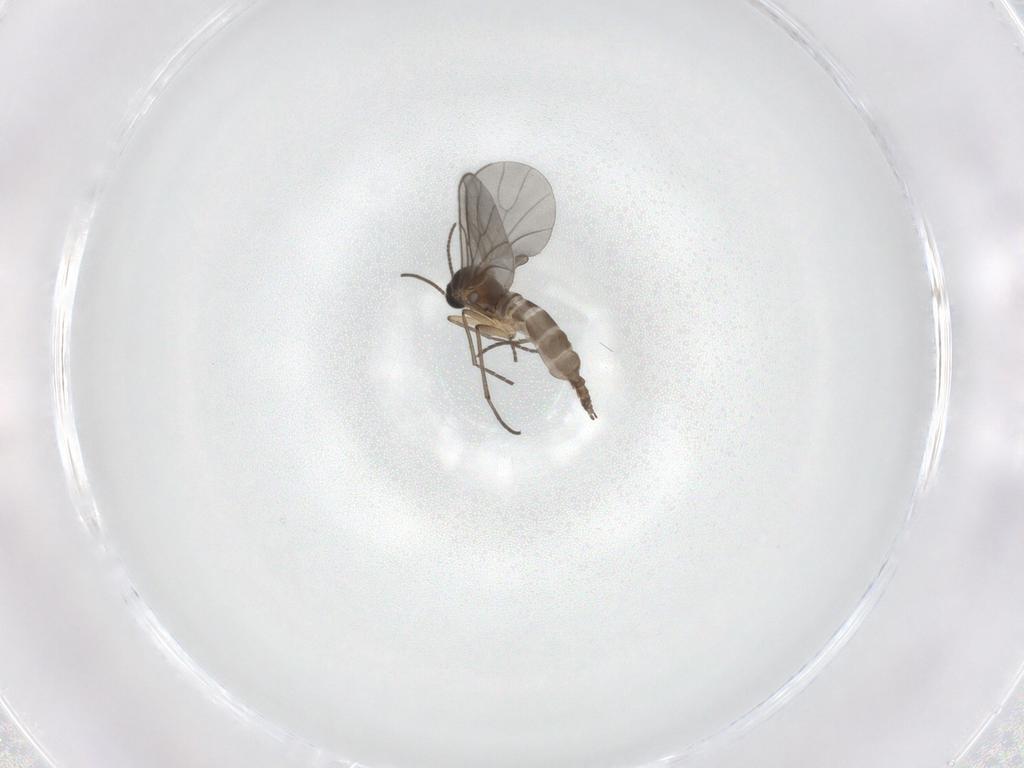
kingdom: Animalia
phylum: Arthropoda
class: Insecta
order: Diptera
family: Sciaridae
